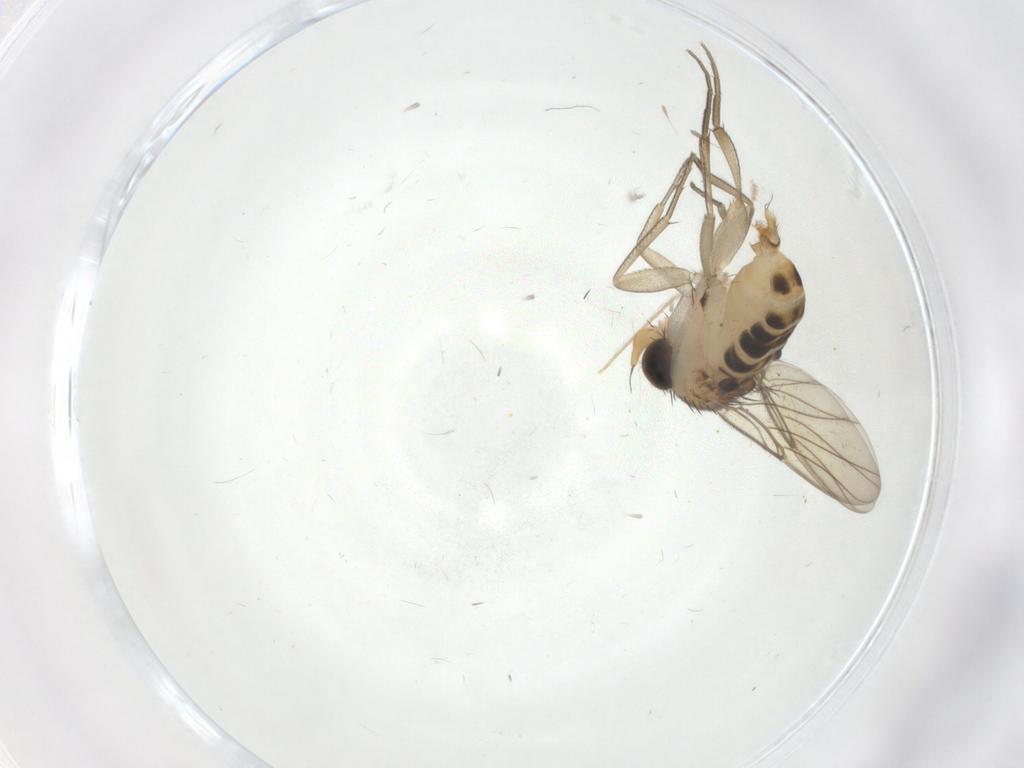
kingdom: Animalia
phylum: Arthropoda
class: Insecta
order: Diptera
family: Phoridae
